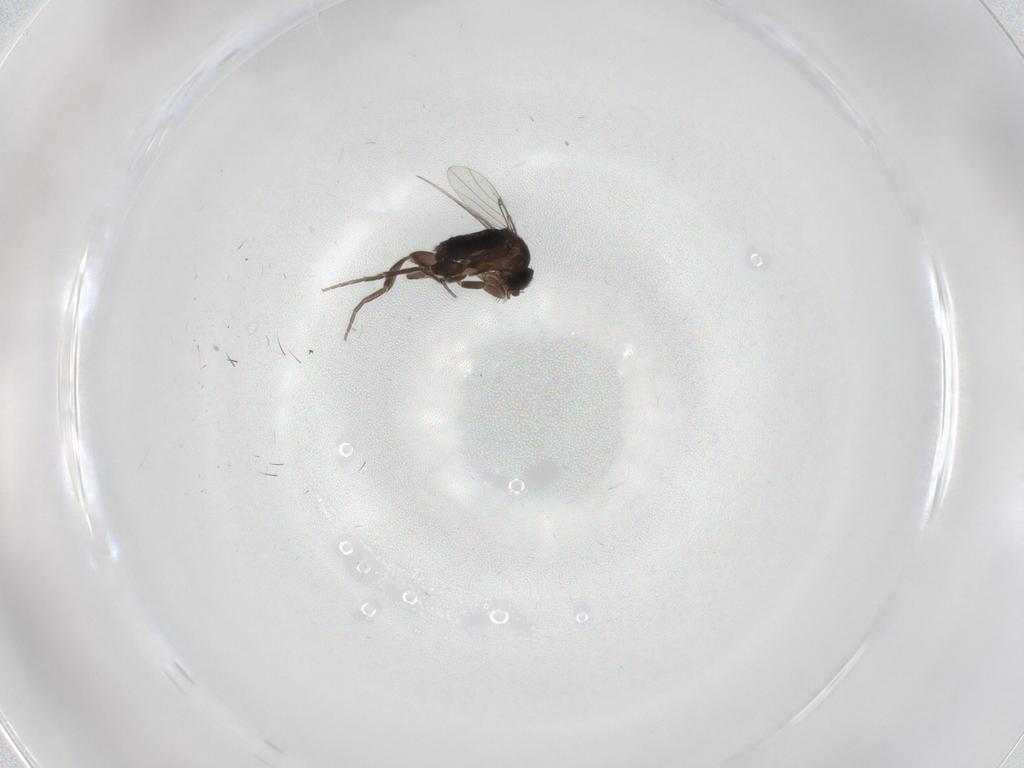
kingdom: Animalia
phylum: Arthropoda
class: Insecta
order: Diptera
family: Phoridae
